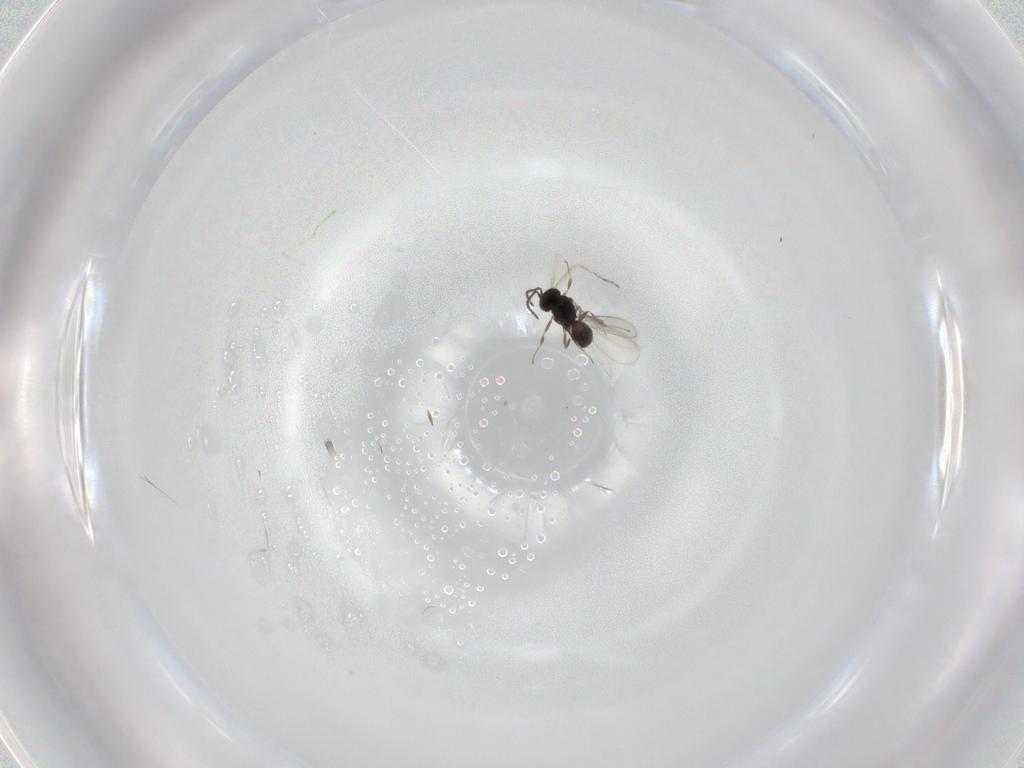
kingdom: Animalia
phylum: Arthropoda
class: Insecta
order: Hymenoptera
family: Scelionidae
